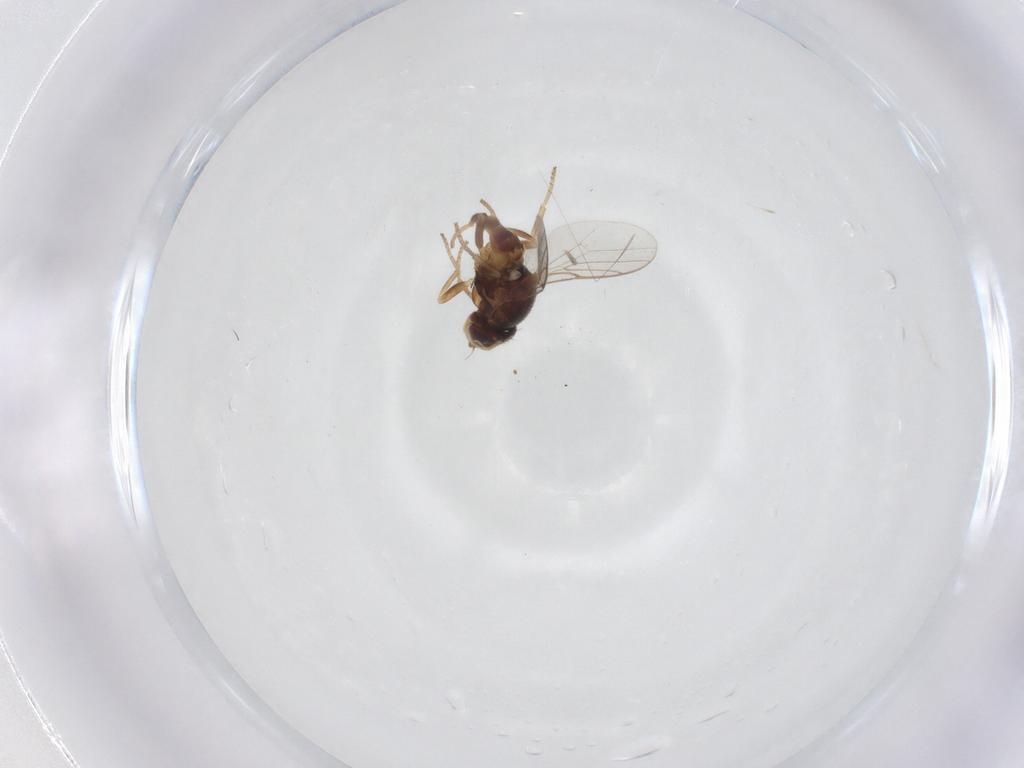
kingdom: Animalia
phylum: Arthropoda
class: Insecta
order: Diptera
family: Chloropidae
